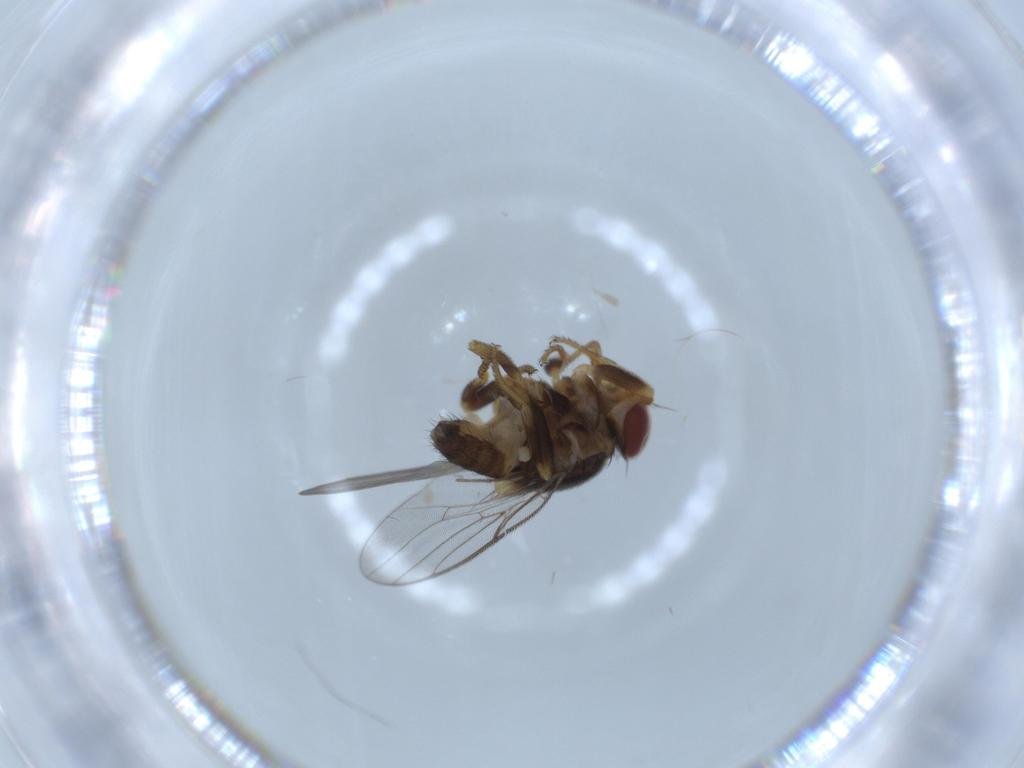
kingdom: Animalia
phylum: Arthropoda
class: Insecta
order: Diptera
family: Chloropidae
